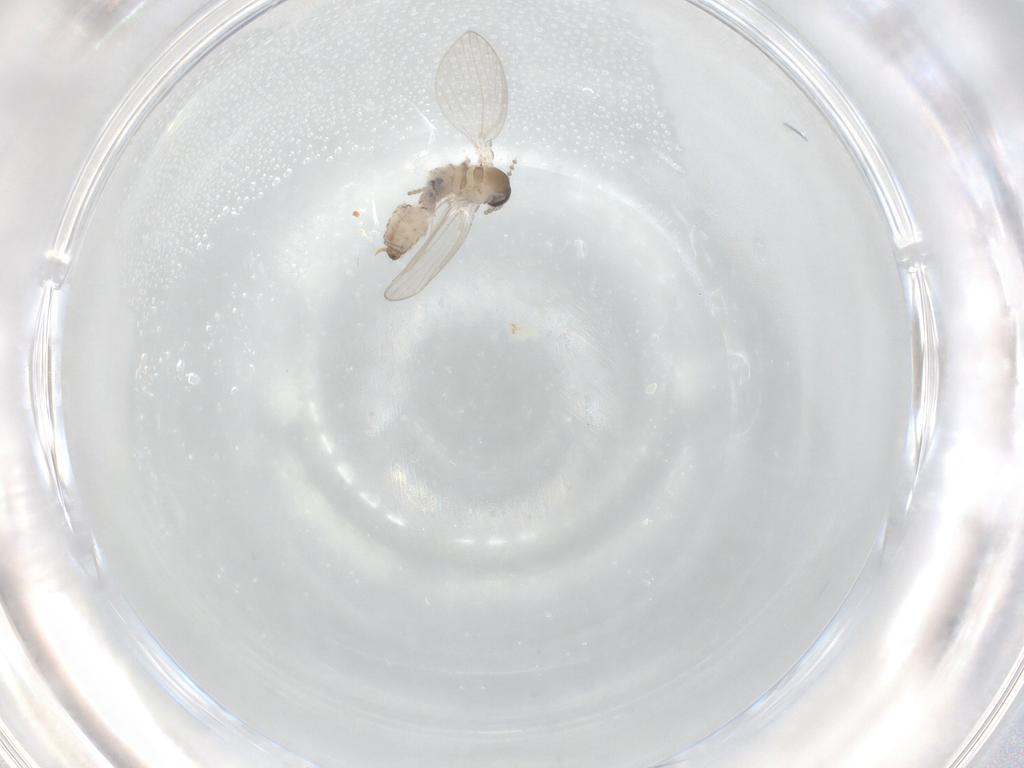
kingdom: Animalia
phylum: Arthropoda
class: Insecta
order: Diptera
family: Psychodidae
